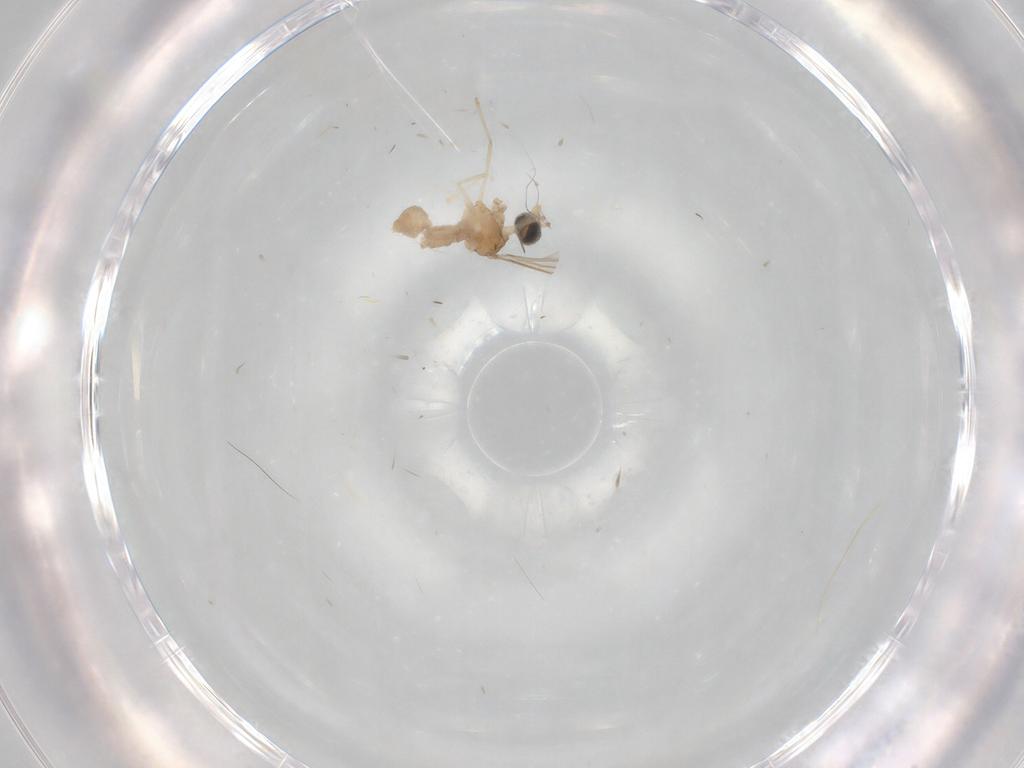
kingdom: Animalia
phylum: Arthropoda
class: Insecta
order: Diptera
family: Cecidomyiidae
